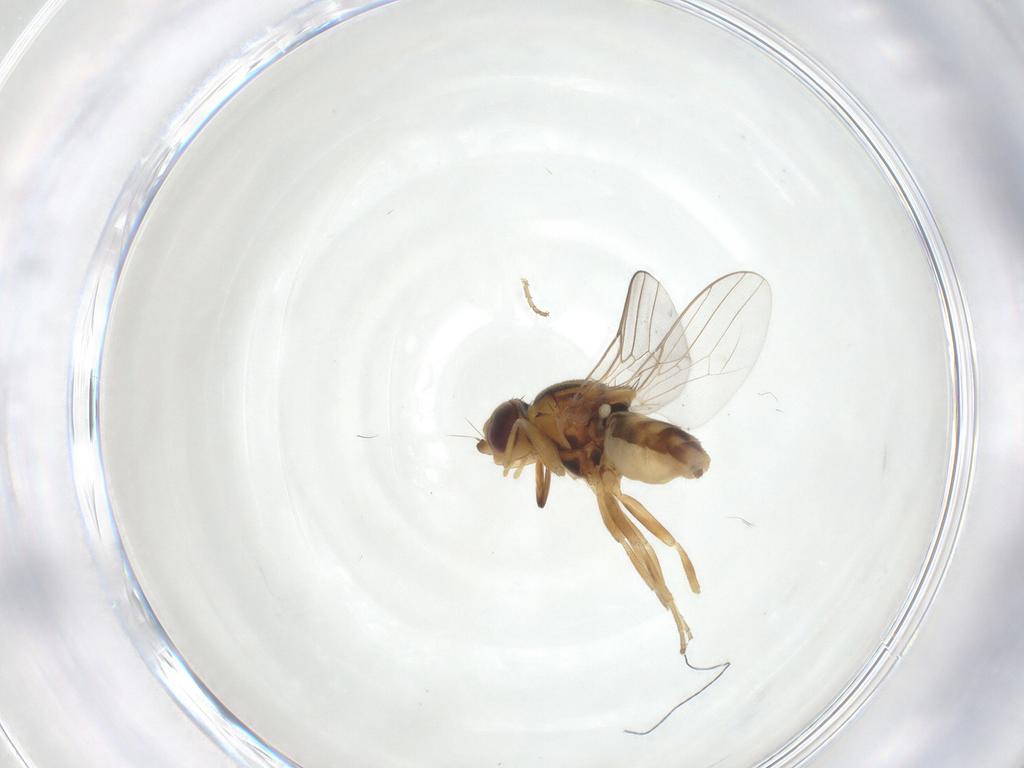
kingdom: Animalia
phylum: Arthropoda
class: Insecta
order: Diptera
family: Chloropidae
